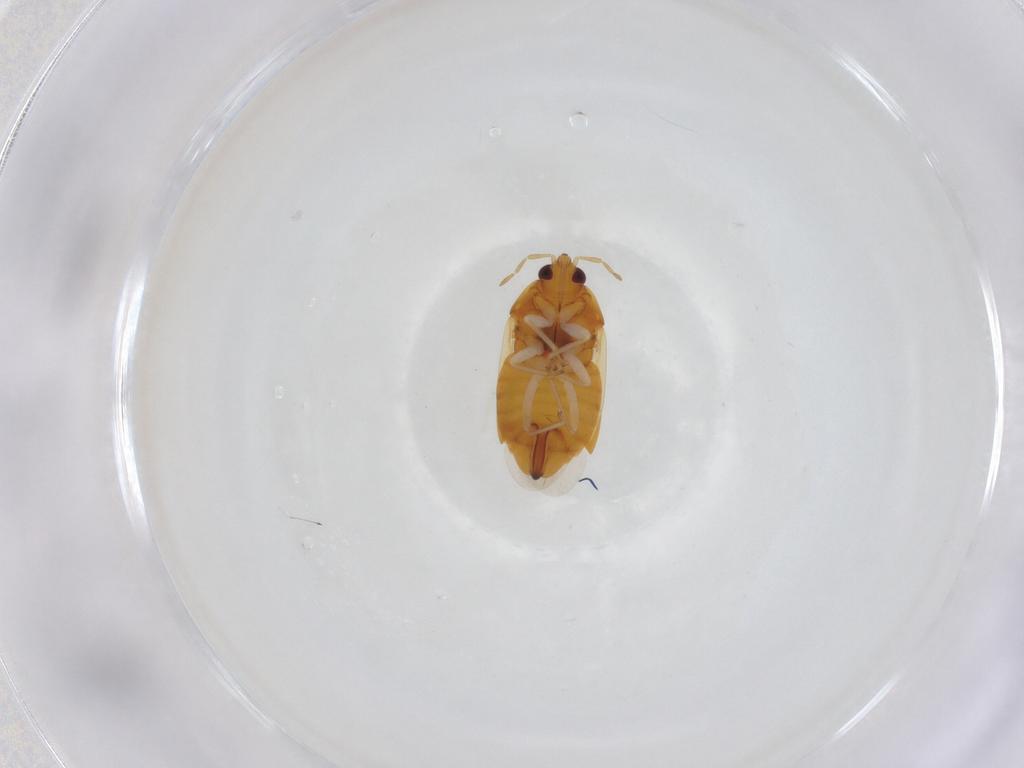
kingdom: Animalia
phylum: Arthropoda
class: Insecta
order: Hemiptera
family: Anthocoridae
